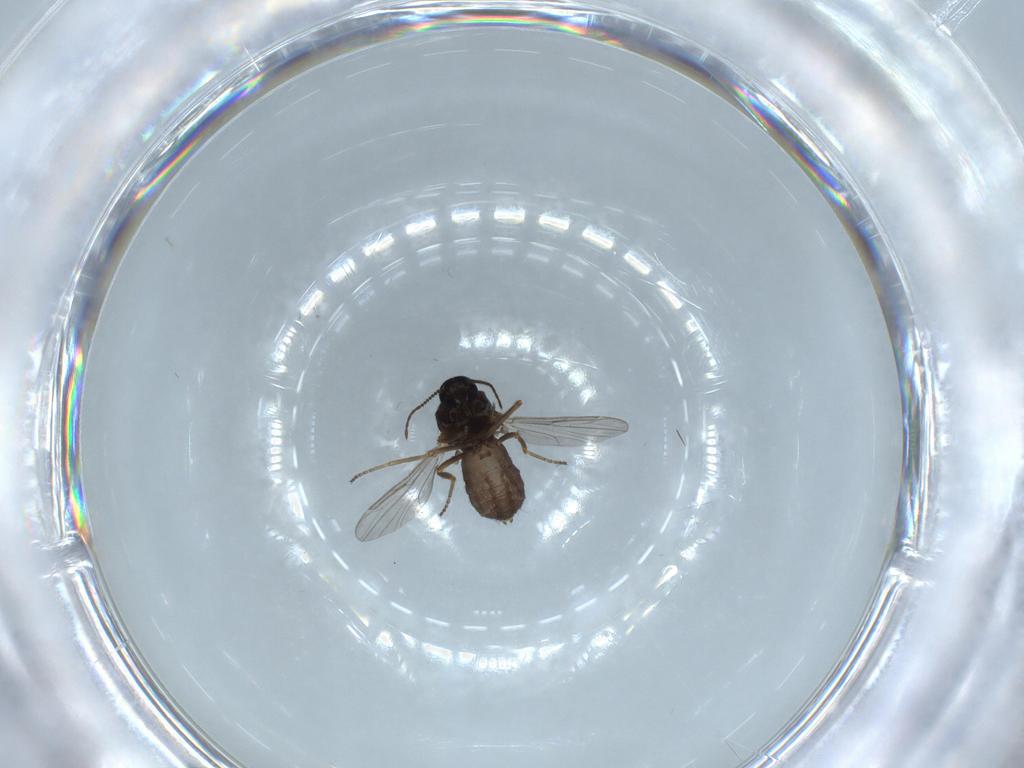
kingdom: Animalia
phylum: Arthropoda
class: Insecta
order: Diptera
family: Ceratopogonidae
